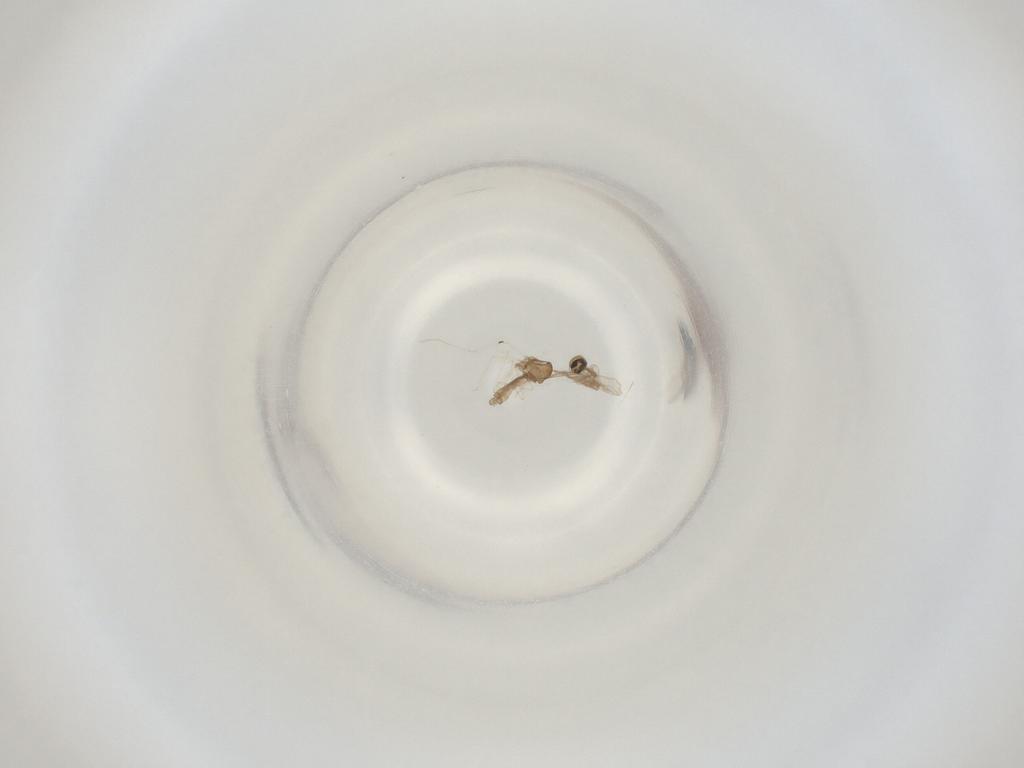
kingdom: Animalia
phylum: Arthropoda
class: Insecta
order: Diptera
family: Cecidomyiidae
